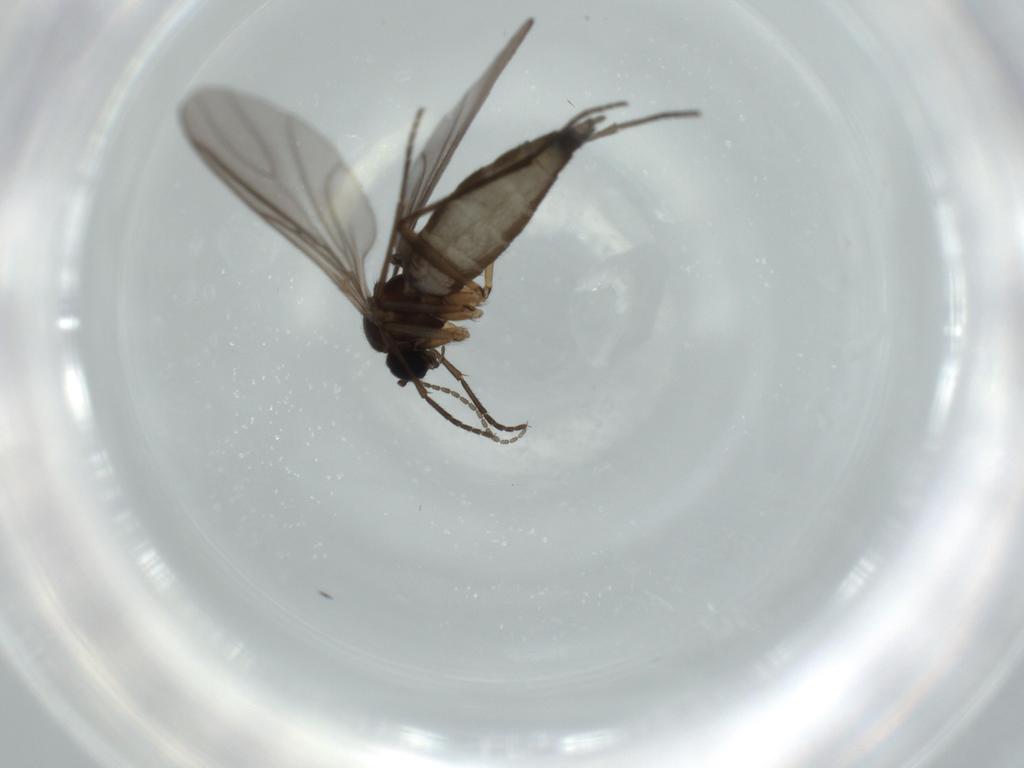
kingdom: Animalia
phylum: Arthropoda
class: Insecta
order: Diptera
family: Sciaridae
